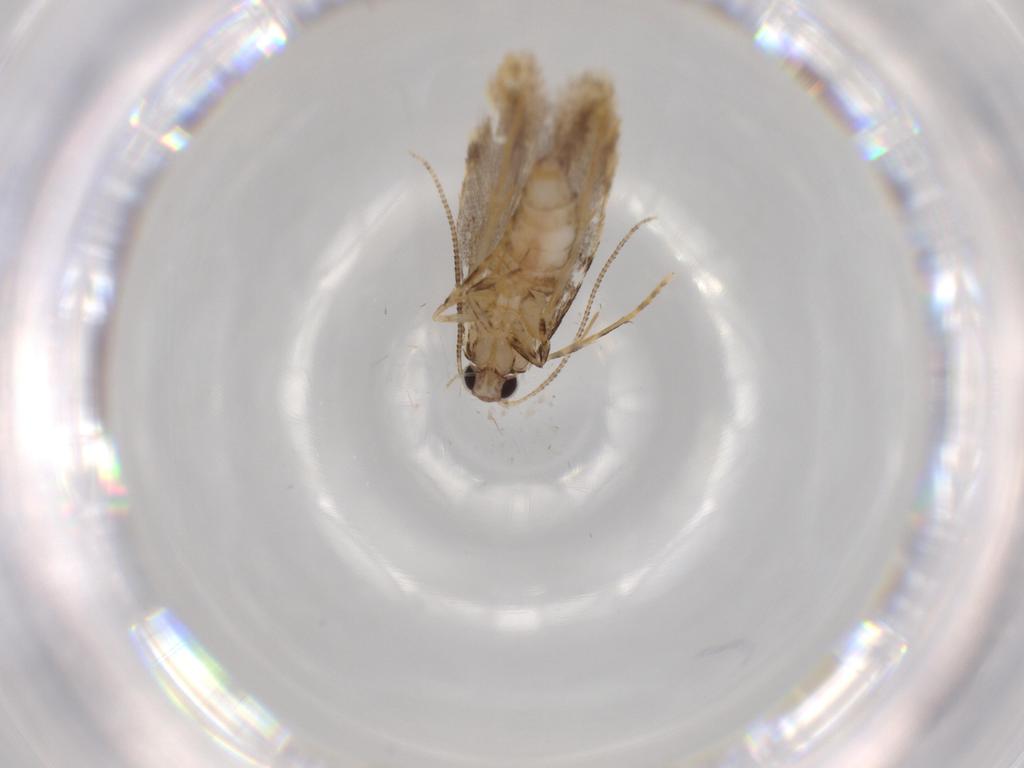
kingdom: Animalia
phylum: Arthropoda
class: Insecta
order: Lepidoptera
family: Tineidae
